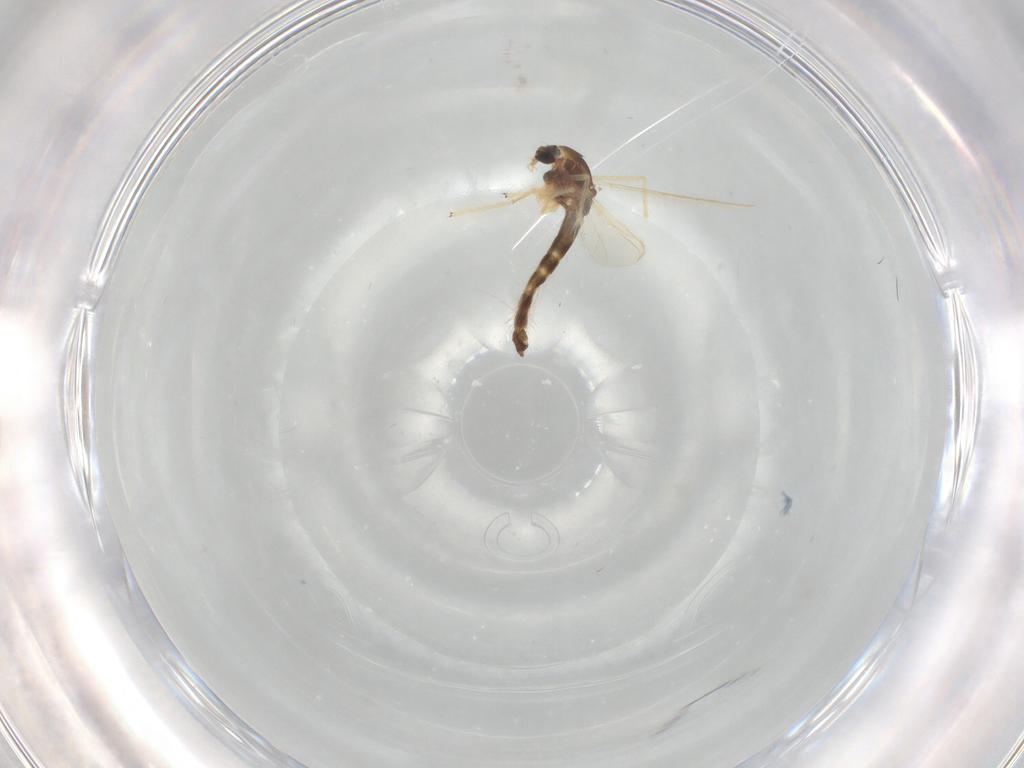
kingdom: Animalia
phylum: Arthropoda
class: Insecta
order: Diptera
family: Chironomidae
